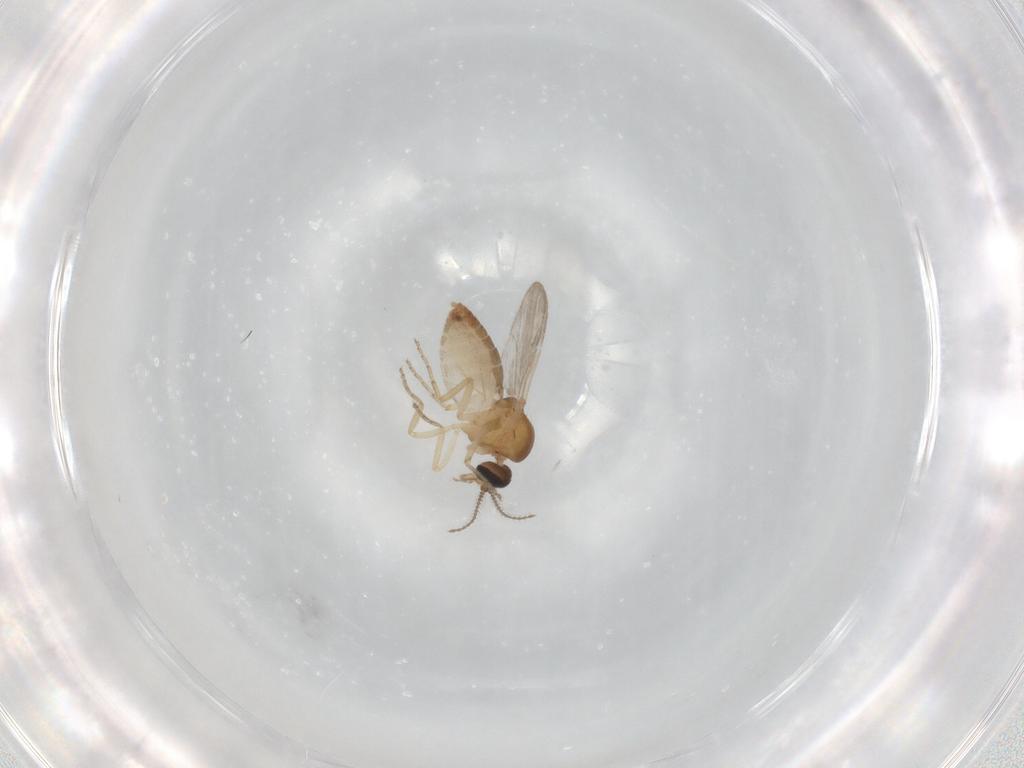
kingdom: Animalia
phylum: Arthropoda
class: Insecta
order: Diptera
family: Ceratopogonidae
